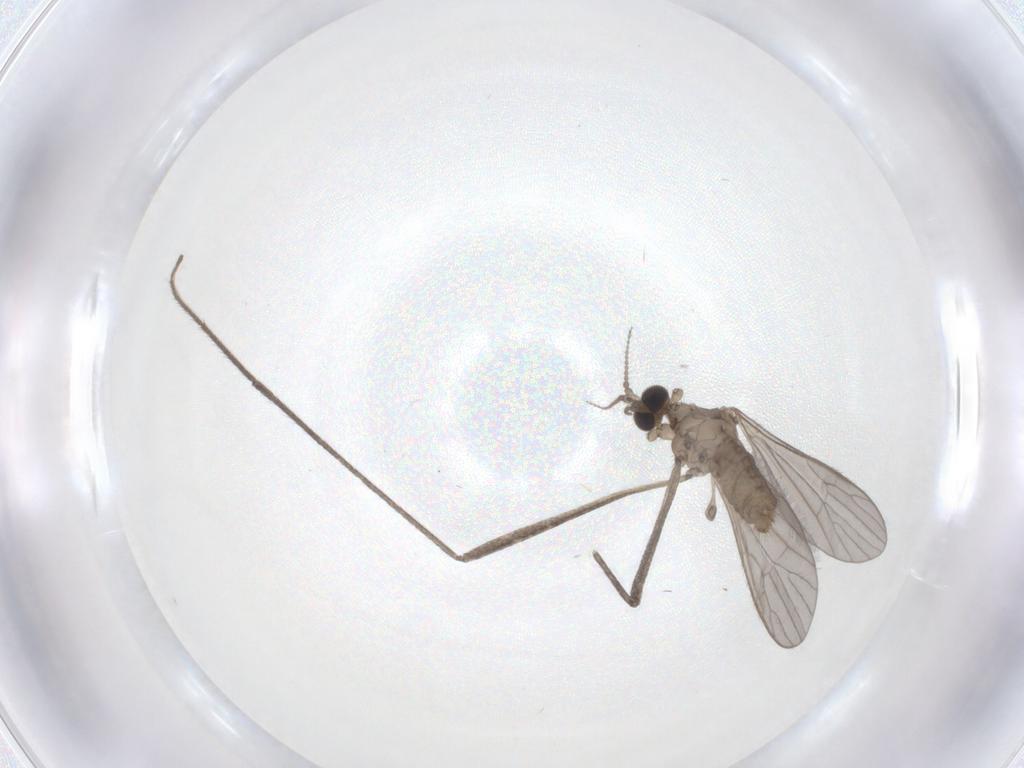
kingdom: Animalia
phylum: Arthropoda
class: Insecta
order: Diptera
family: Limoniidae
